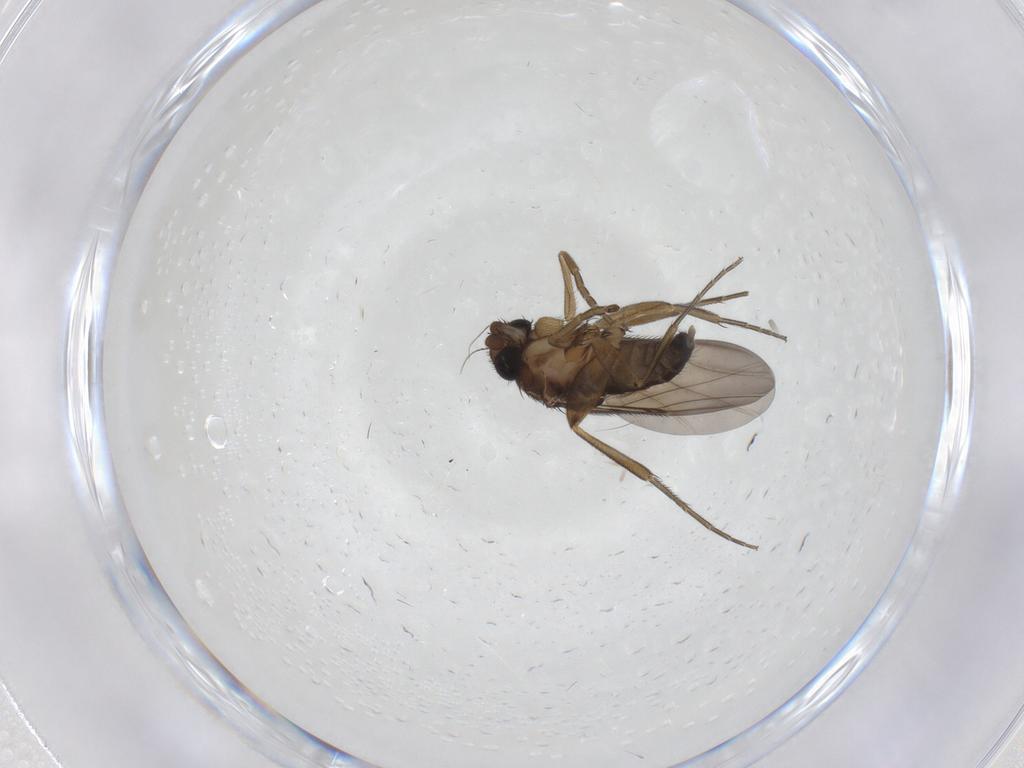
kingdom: Animalia
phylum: Arthropoda
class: Insecta
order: Diptera
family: Phoridae
